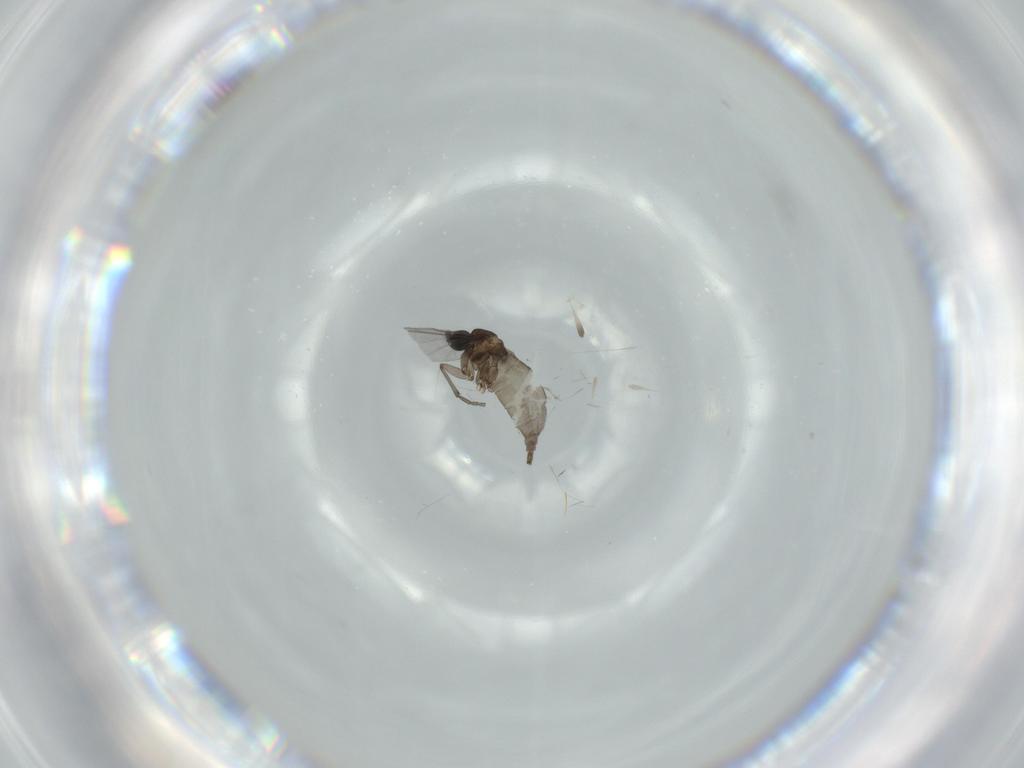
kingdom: Animalia
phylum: Arthropoda
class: Insecta
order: Diptera
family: Sciaridae
